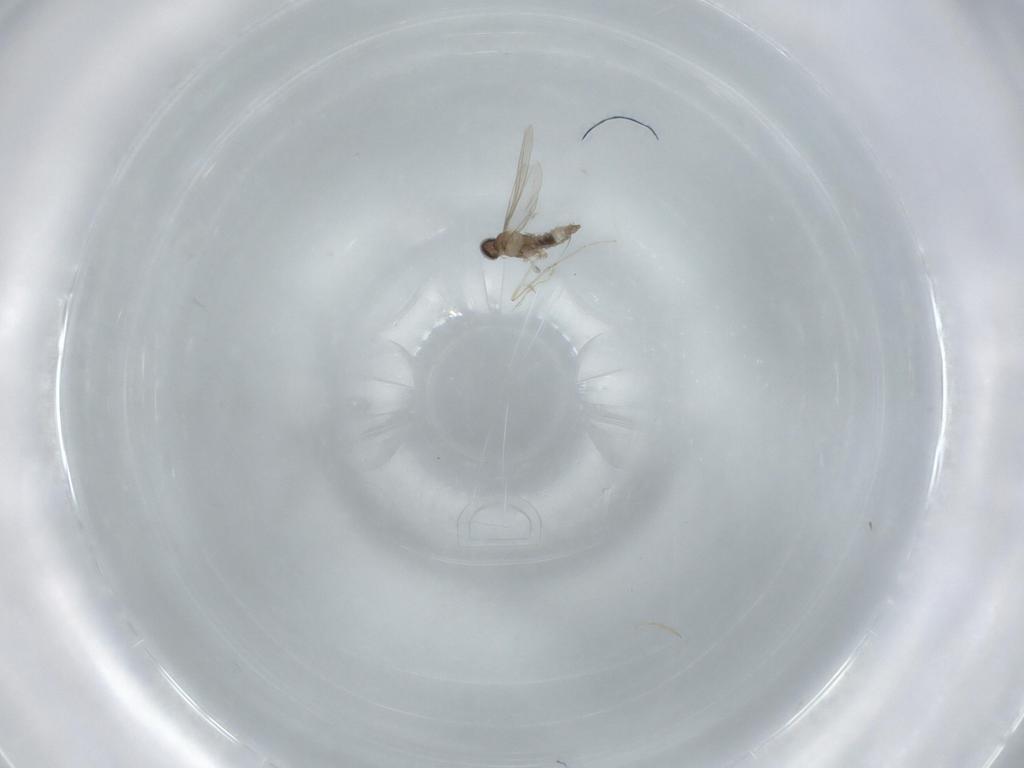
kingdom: Animalia
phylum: Arthropoda
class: Insecta
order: Diptera
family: Cecidomyiidae
